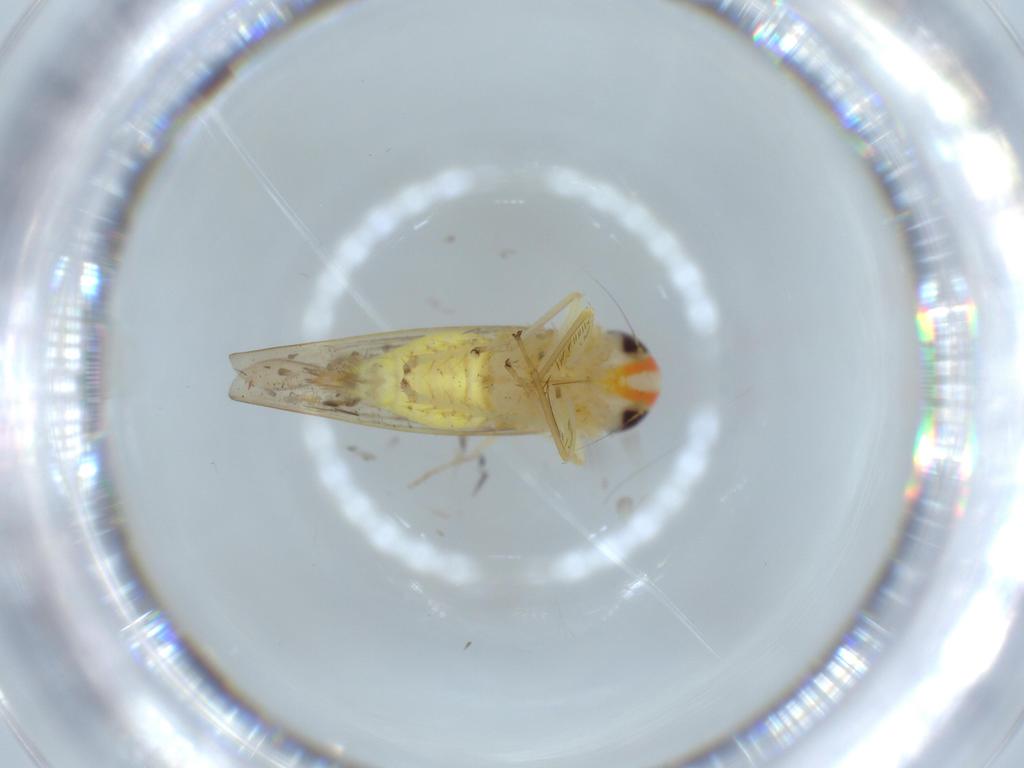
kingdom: Animalia
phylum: Arthropoda
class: Insecta
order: Hemiptera
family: Cicadellidae
